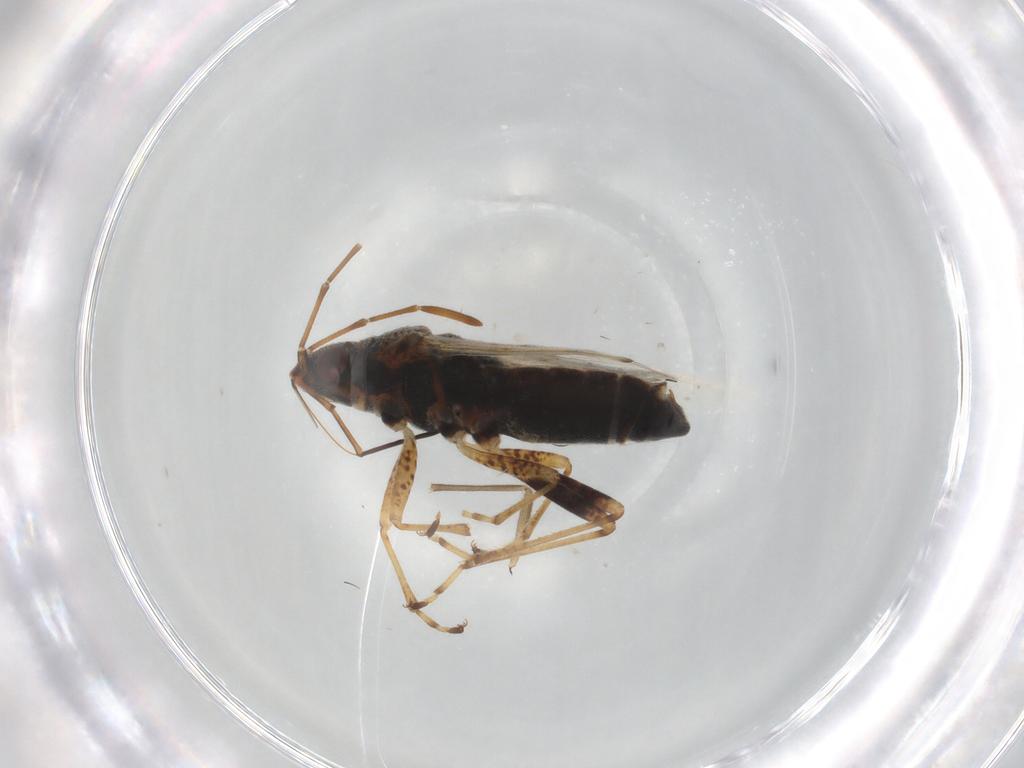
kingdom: Animalia
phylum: Arthropoda
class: Insecta
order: Hemiptera
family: Lygaeidae
